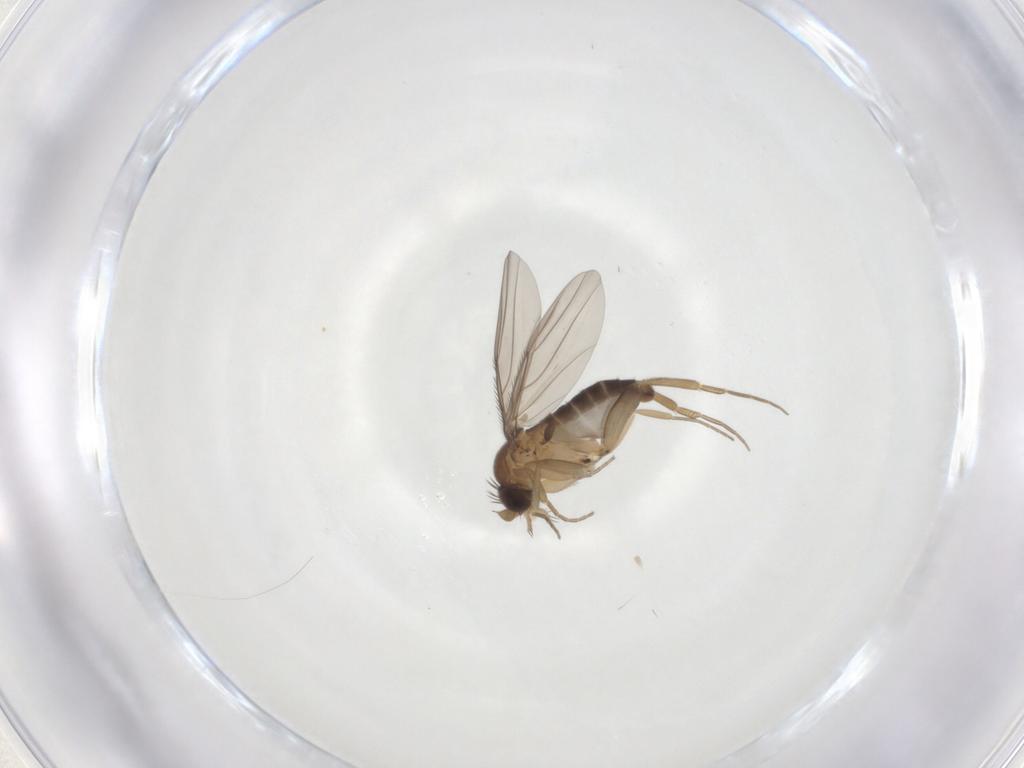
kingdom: Animalia
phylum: Arthropoda
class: Insecta
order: Diptera
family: Phoridae
